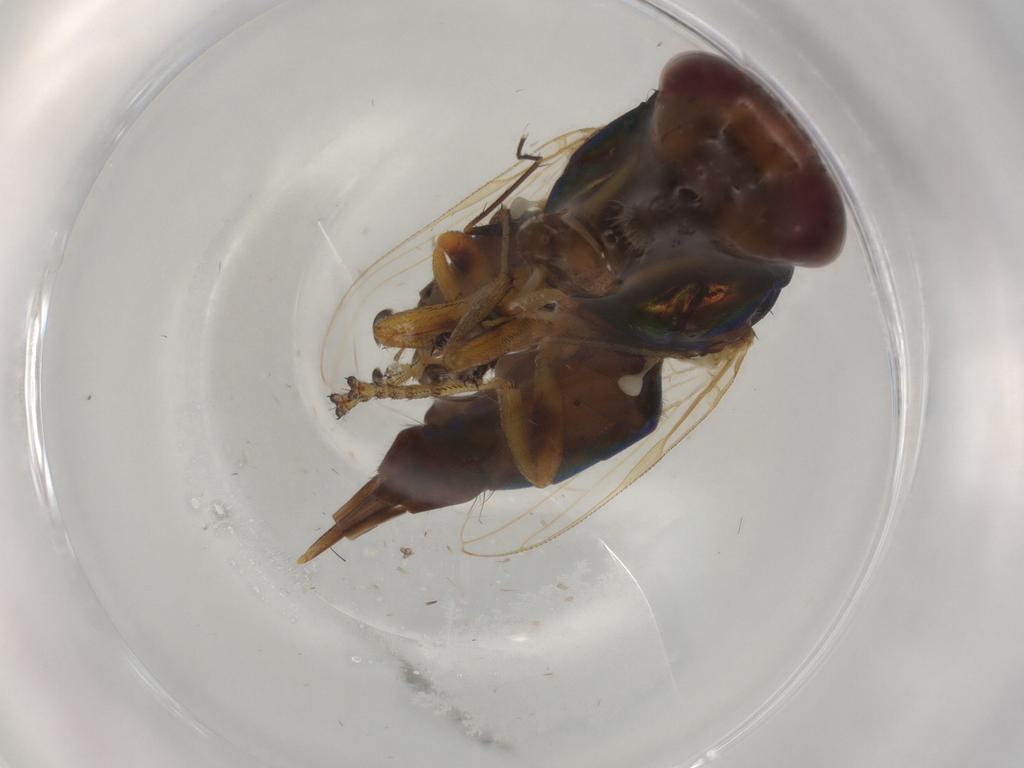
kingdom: Animalia
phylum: Arthropoda
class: Insecta
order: Diptera
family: Ulidiidae
